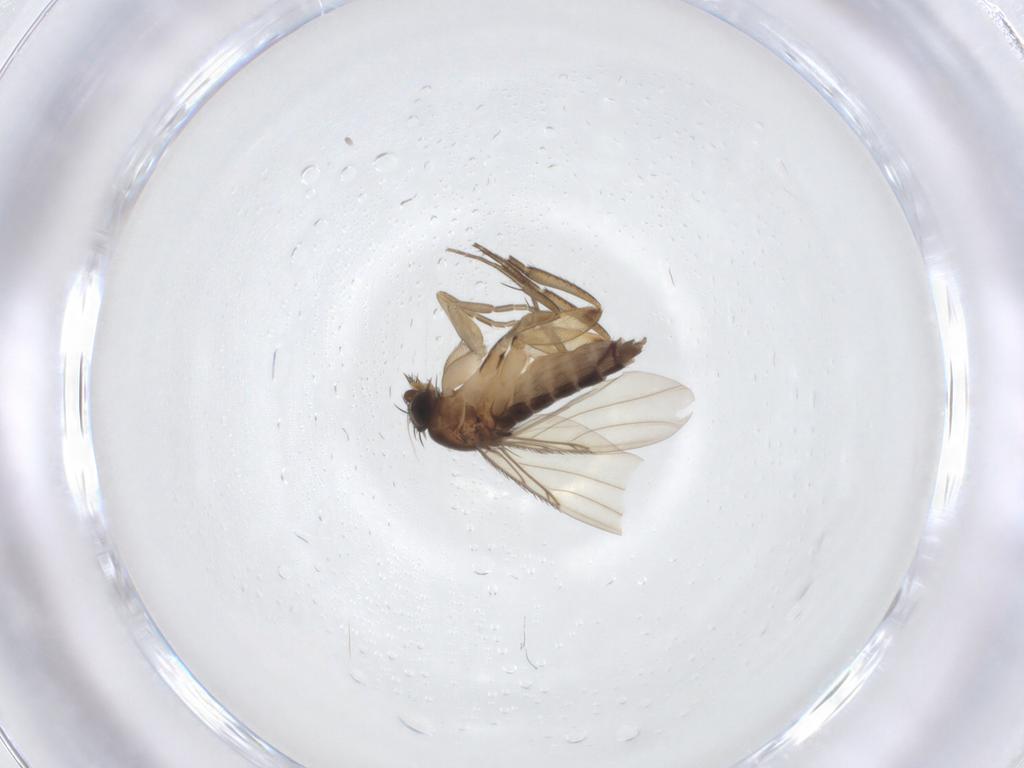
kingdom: Animalia
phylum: Arthropoda
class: Insecta
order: Diptera
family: Phoridae
